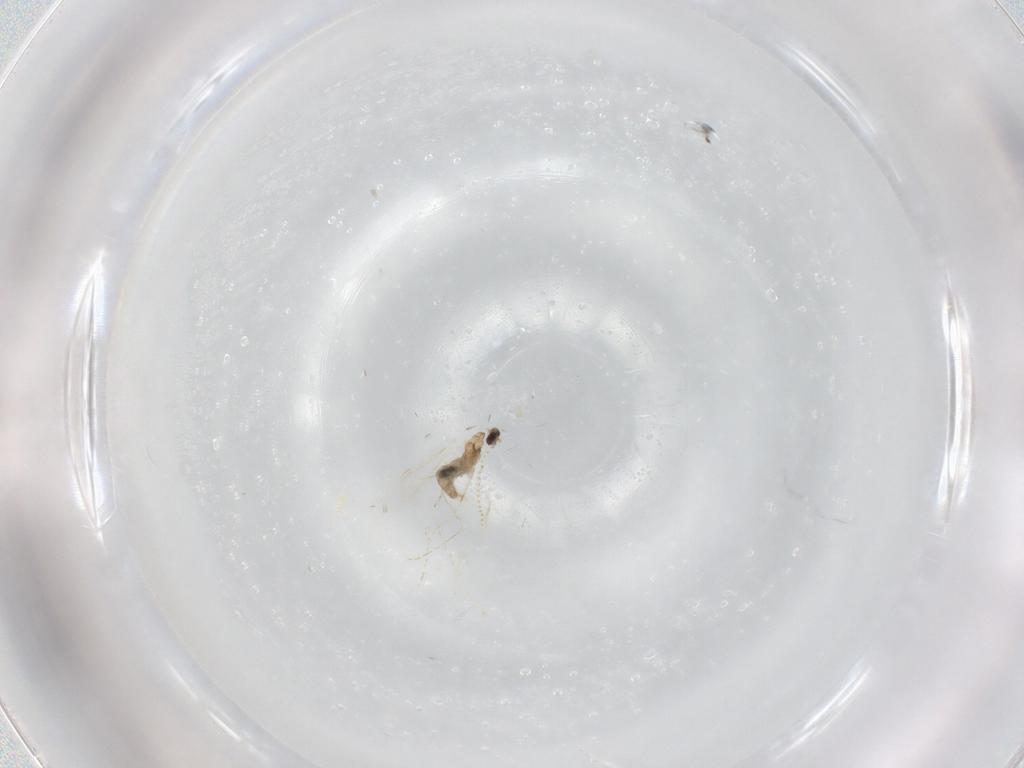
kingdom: Animalia
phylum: Arthropoda
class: Insecta
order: Diptera
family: Cecidomyiidae
